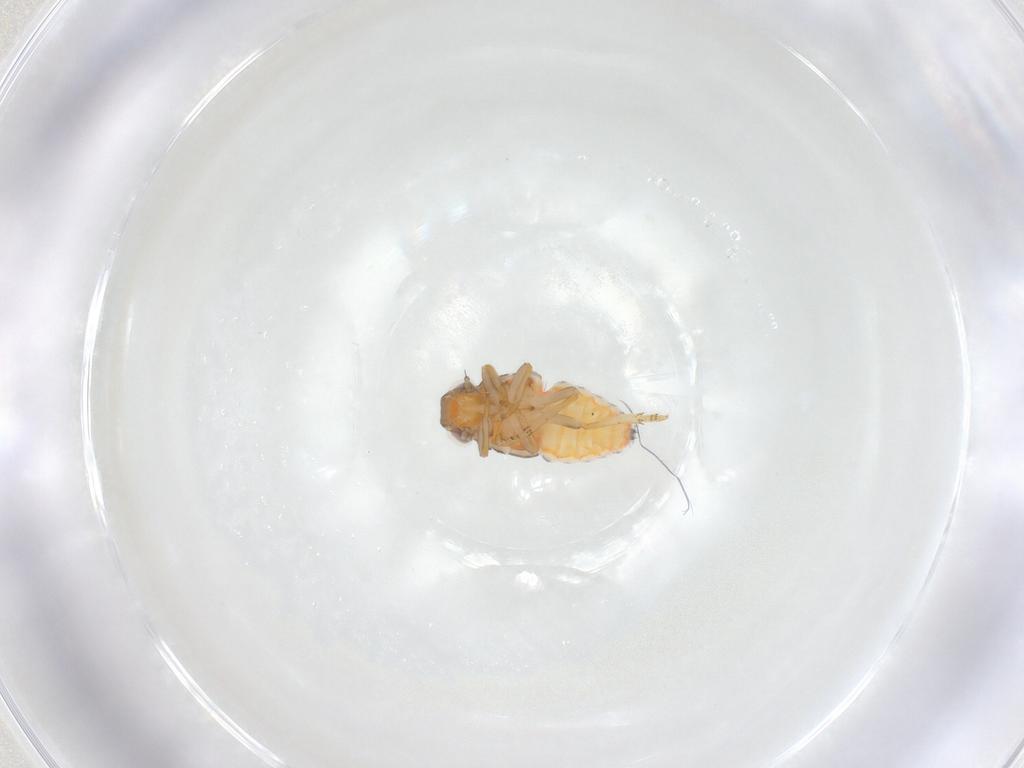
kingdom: Animalia
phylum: Arthropoda
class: Insecta
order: Hemiptera
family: Issidae
